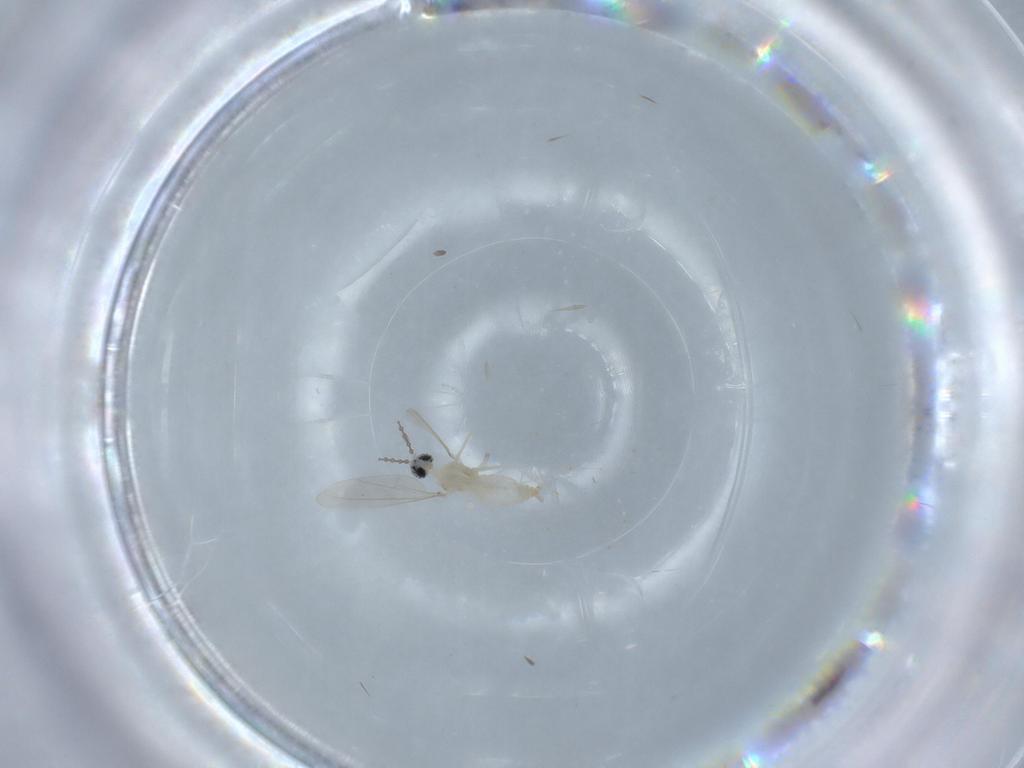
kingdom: Animalia
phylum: Arthropoda
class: Insecta
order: Diptera
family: Cecidomyiidae
